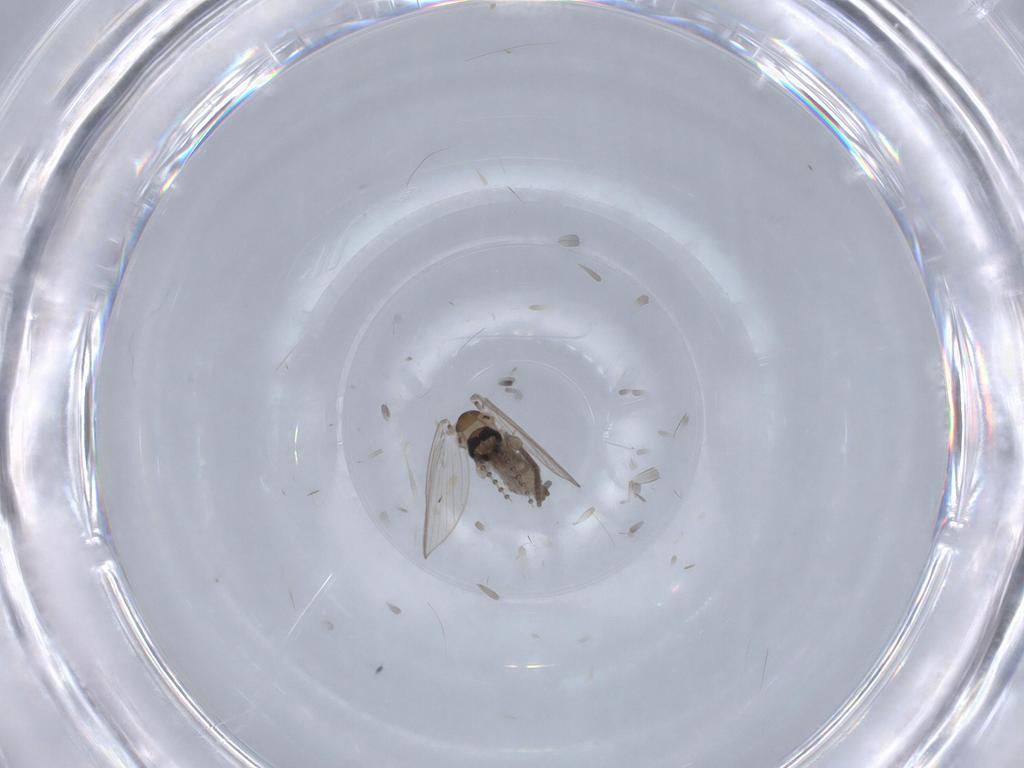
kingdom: Animalia
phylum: Arthropoda
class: Insecta
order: Diptera
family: Psychodidae
